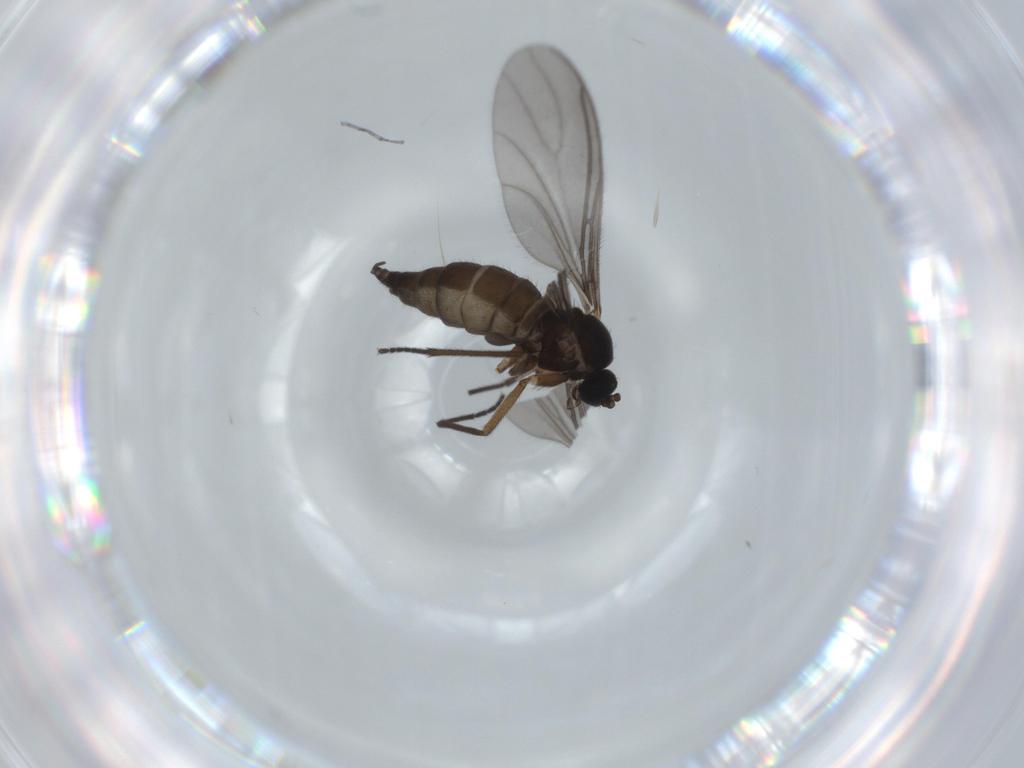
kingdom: Animalia
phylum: Arthropoda
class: Insecta
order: Diptera
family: Sciaridae
